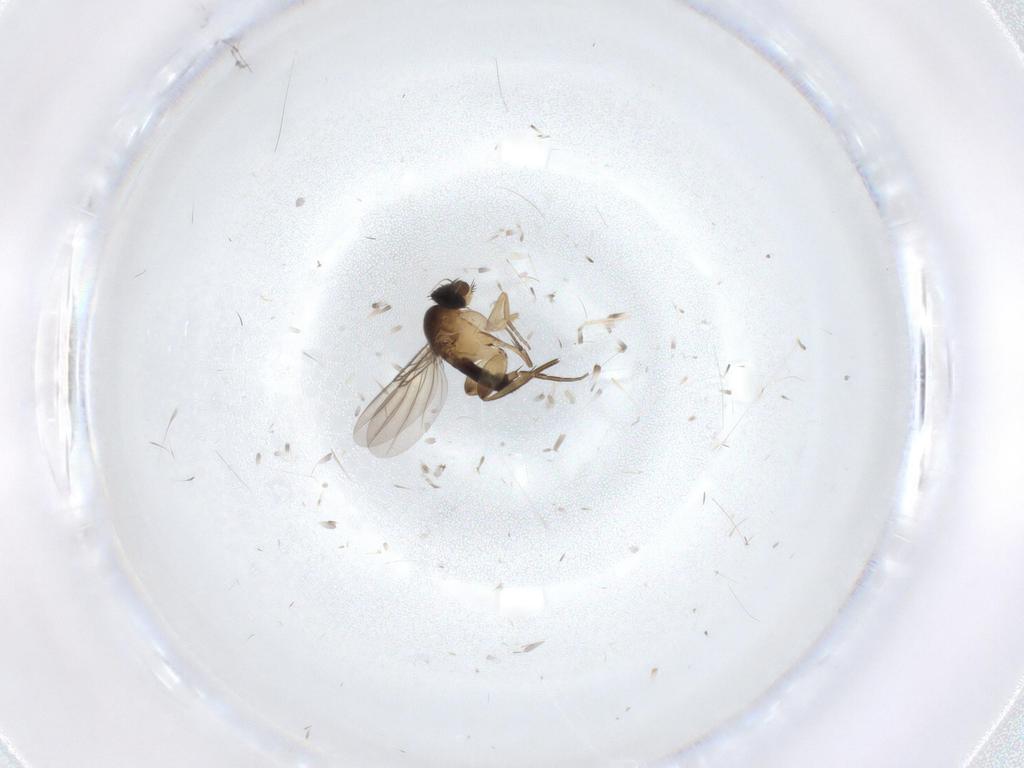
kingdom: Animalia
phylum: Arthropoda
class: Insecta
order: Diptera
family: Phoridae
